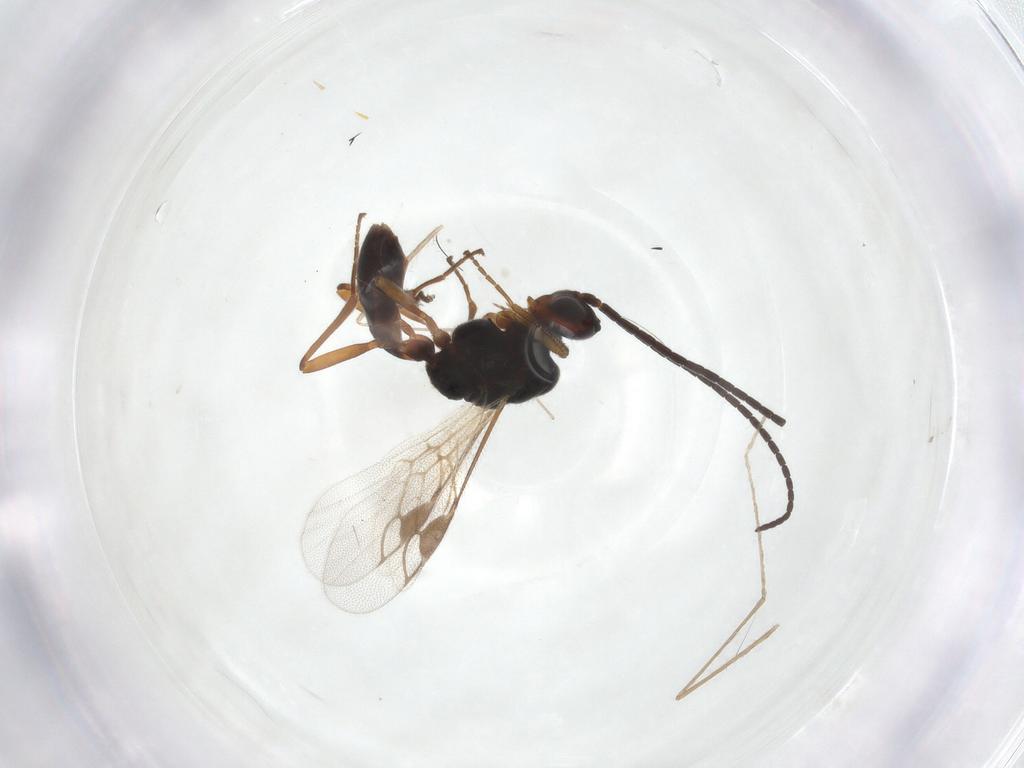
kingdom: Animalia
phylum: Arthropoda
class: Insecta
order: Hymenoptera
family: Braconidae
